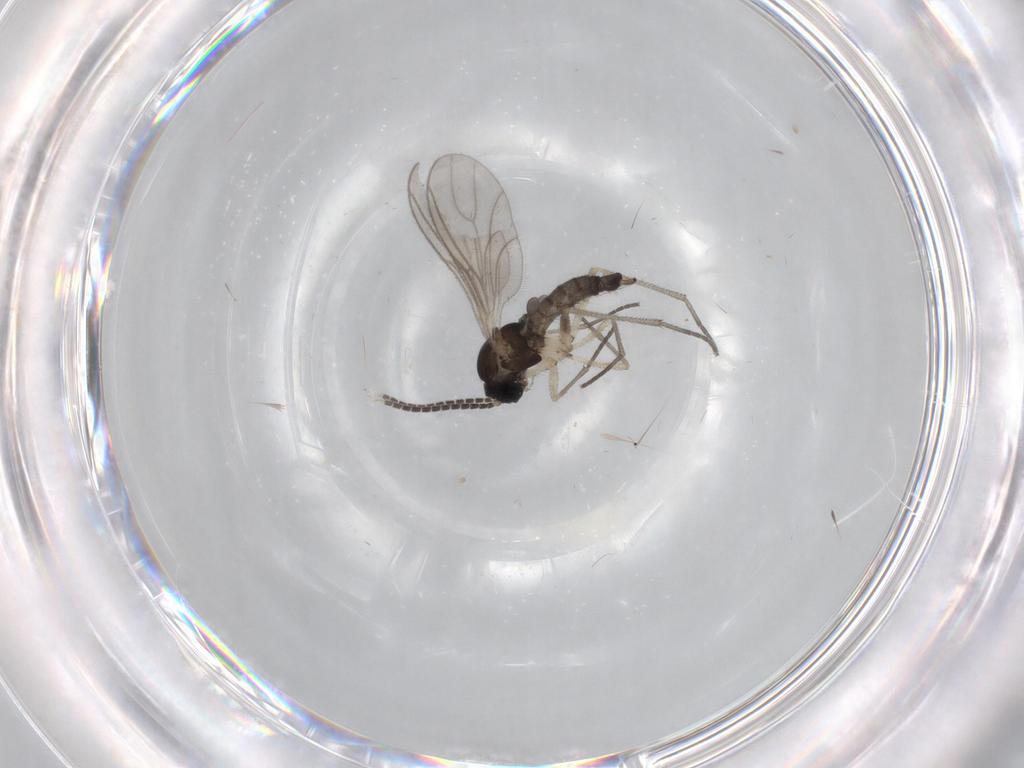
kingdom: Animalia
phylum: Arthropoda
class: Insecta
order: Diptera
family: Sciaridae
